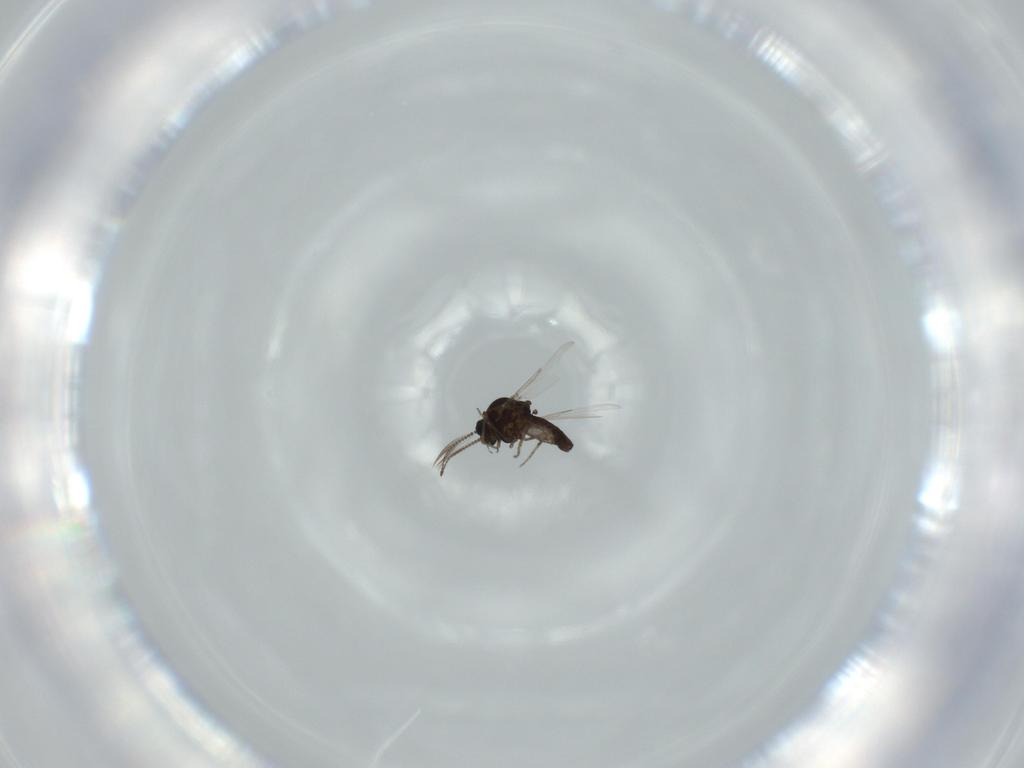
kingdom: Animalia
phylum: Arthropoda
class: Insecta
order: Diptera
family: Ceratopogonidae
